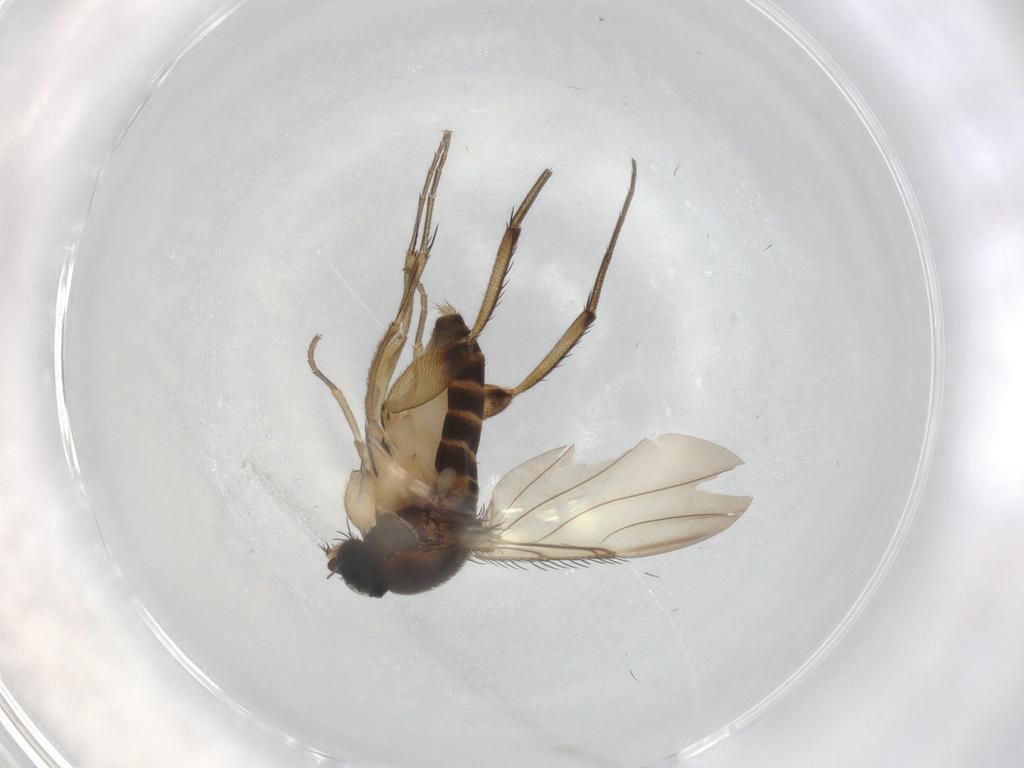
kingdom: Animalia
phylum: Arthropoda
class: Insecta
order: Diptera
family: Phoridae
